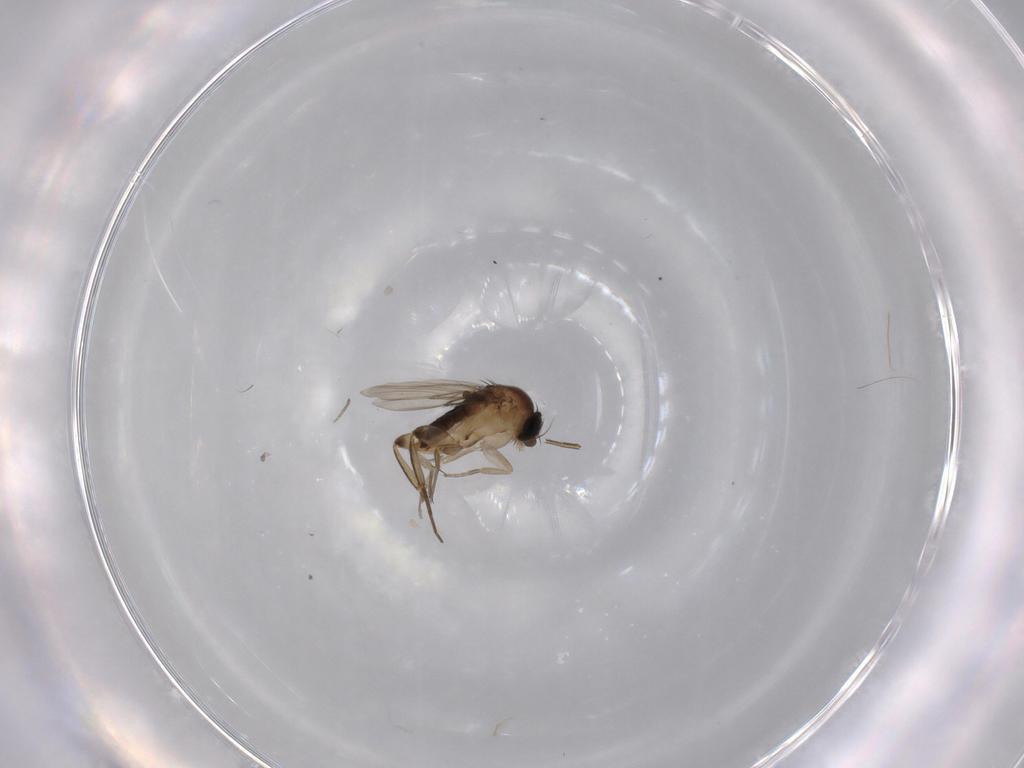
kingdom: Animalia
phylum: Arthropoda
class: Insecta
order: Diptera
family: Phoridae
